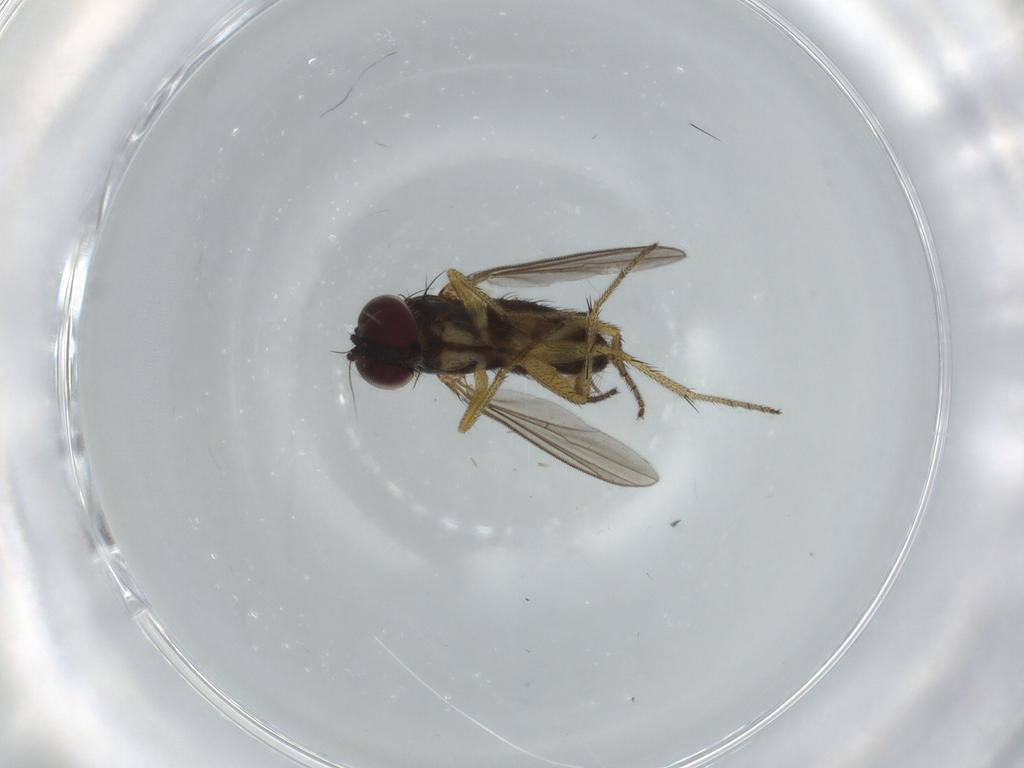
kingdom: Animalia
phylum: Arthropoda
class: Insecta
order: Diptera
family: Dolichopodidae
